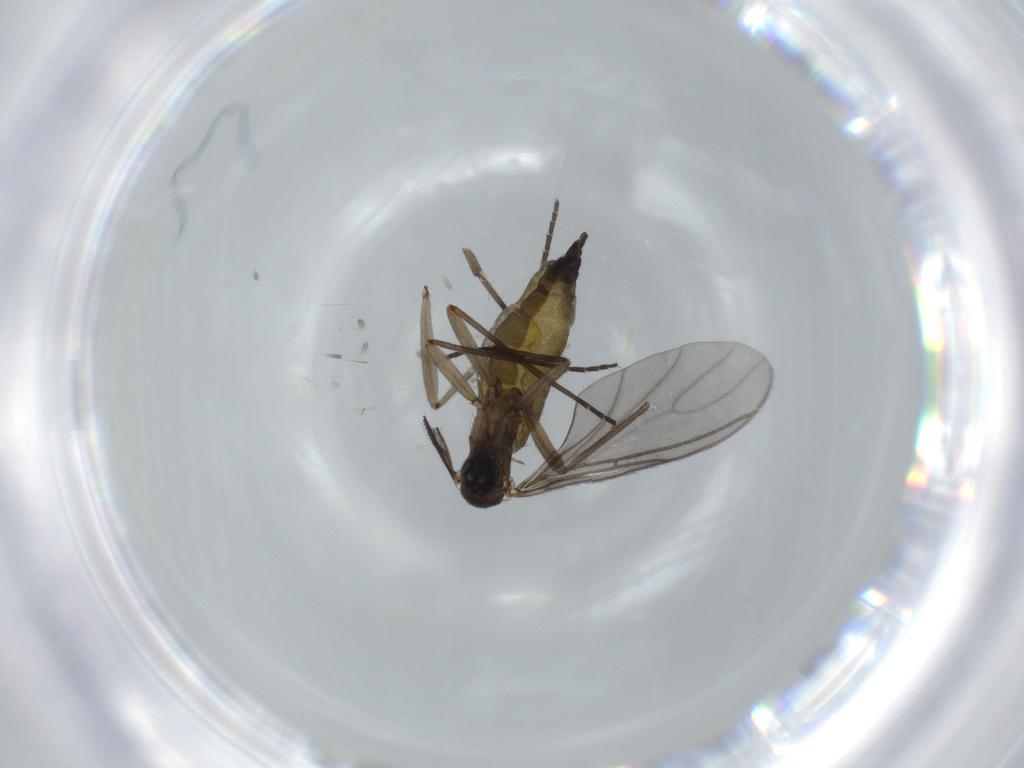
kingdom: Animalia
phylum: Arthropoda
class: Insecta
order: Diptera
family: Sciaridae
